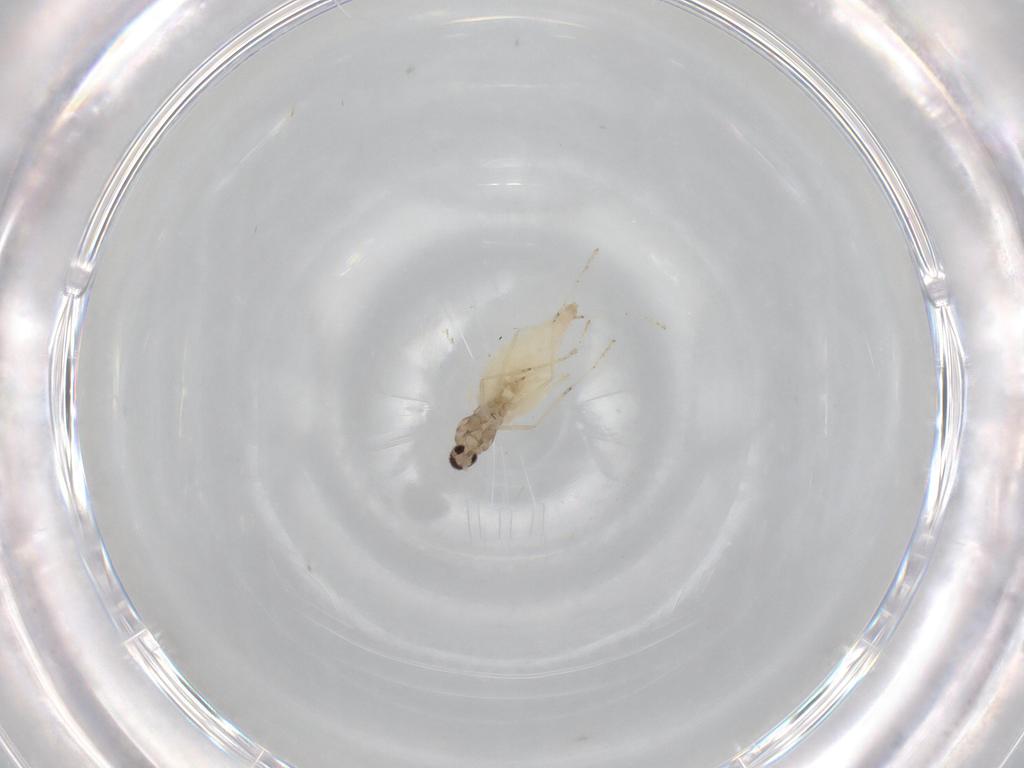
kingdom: Animalia
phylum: Arthropoda
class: Insecta
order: Diptera
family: Cecidomyiidae
